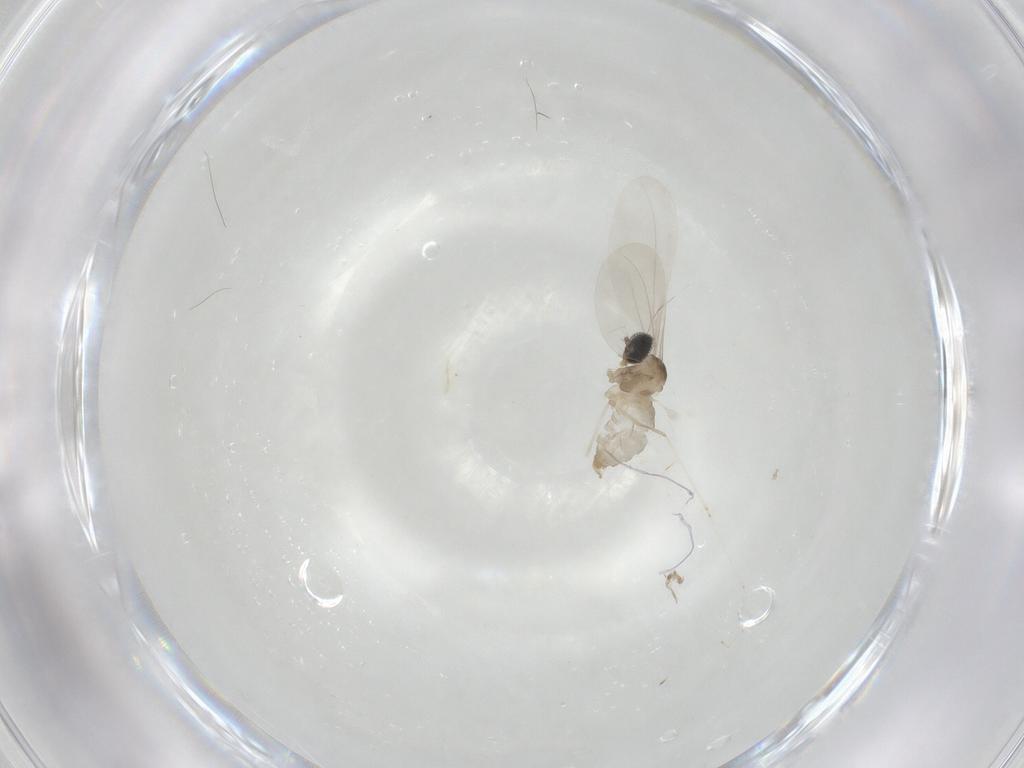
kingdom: Animalia
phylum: Arthropoda
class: Insecta
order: Diptera
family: Cecidomyiidae
